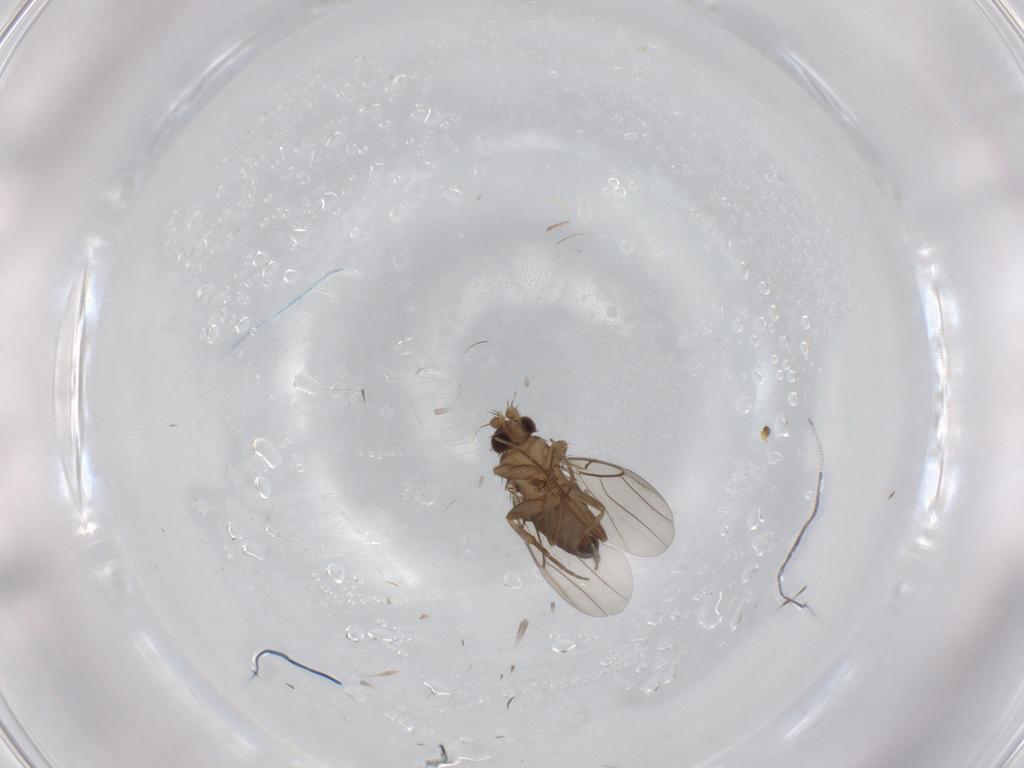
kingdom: Animalia
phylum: Arthropoda
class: Insecta
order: Diptera
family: Phoridae
